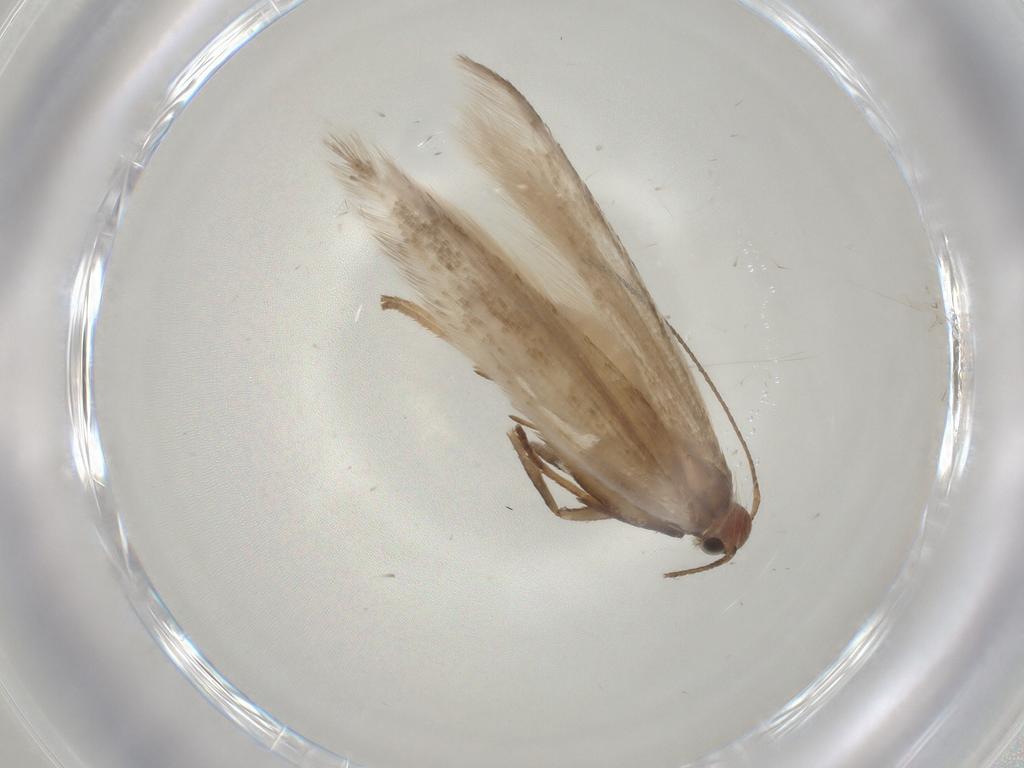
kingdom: Animalia
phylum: Arthropoda
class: Insecta
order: Lepidoptera
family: Gelechiidae
